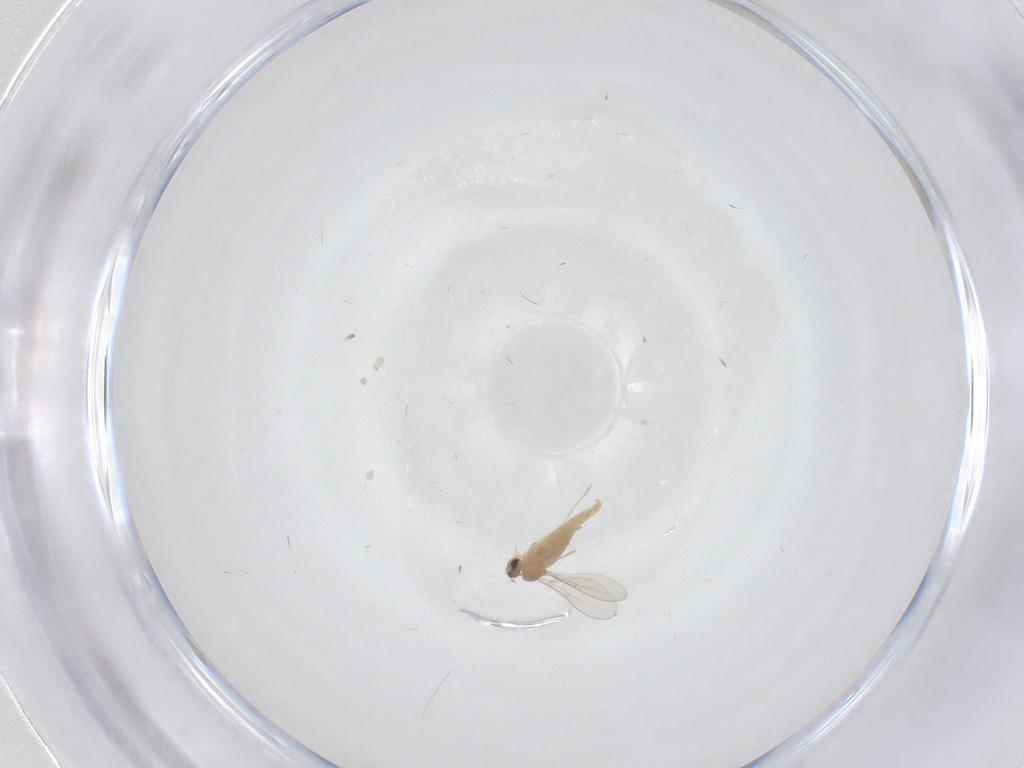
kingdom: Animalia
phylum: Arthropoda
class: Insecta
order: Diptera
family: Cecidomyiidae
